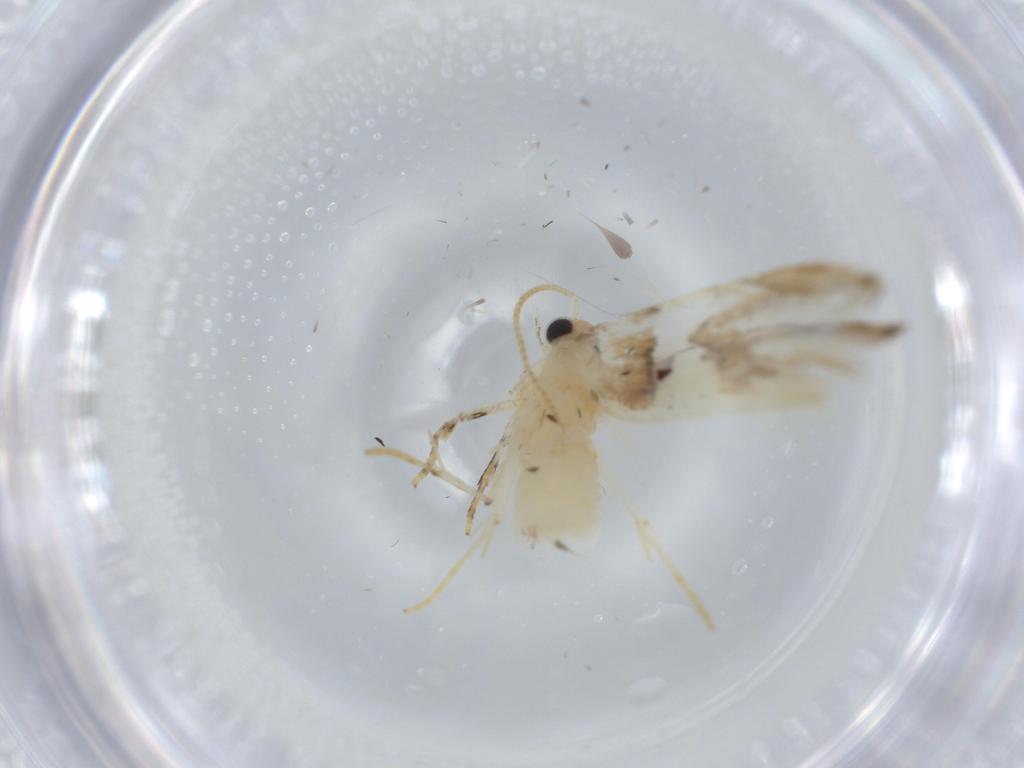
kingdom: Animalia
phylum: Arthropoda
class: Insecta
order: Lepidoptera
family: Tineidae
